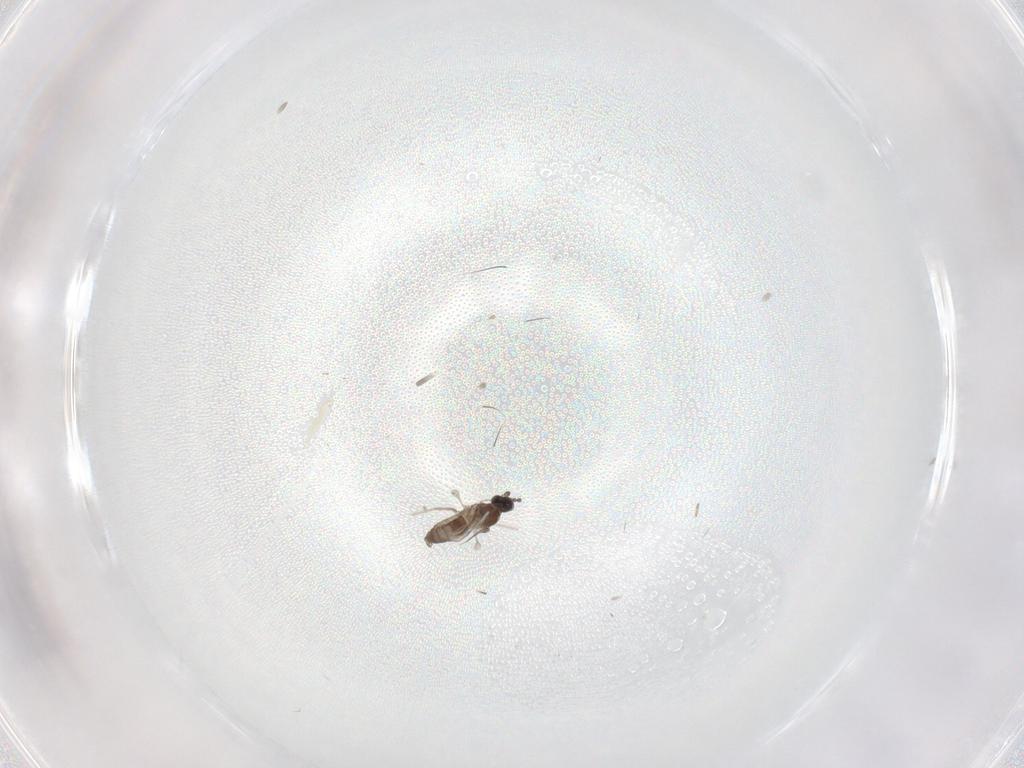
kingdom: Animalia
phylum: Arthropoda
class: Insecta
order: Diptera
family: Cecidomyiidae
